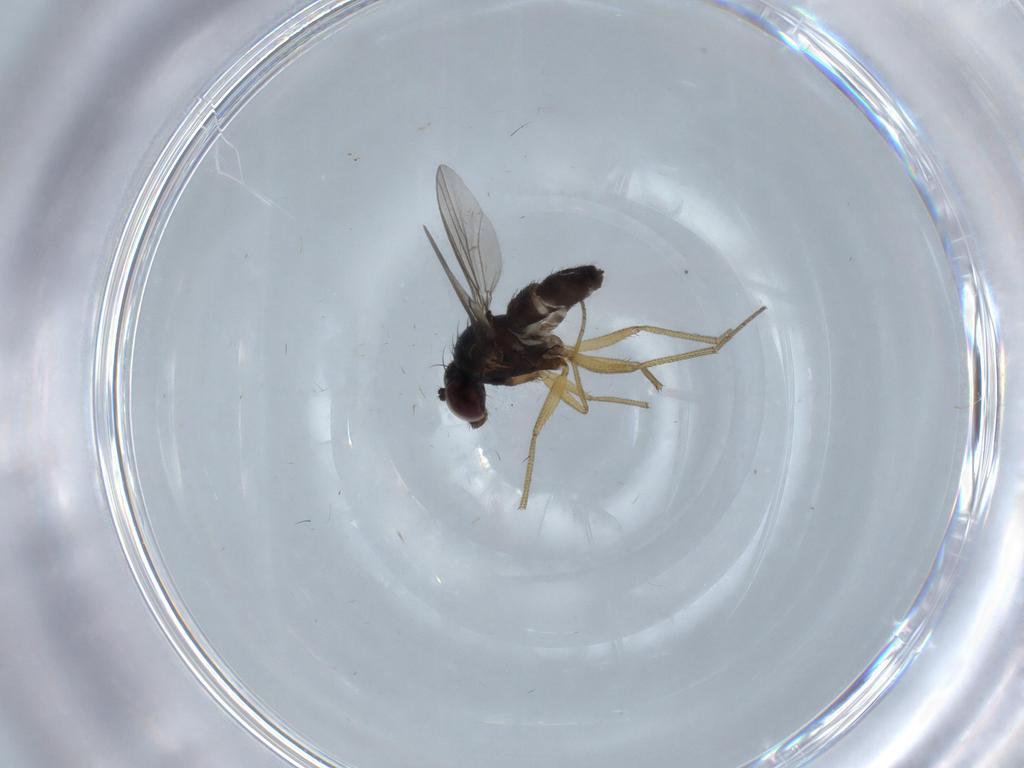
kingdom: Animalia
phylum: Arthropoda
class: Insecta
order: Diptera
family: Dolichopodidae
